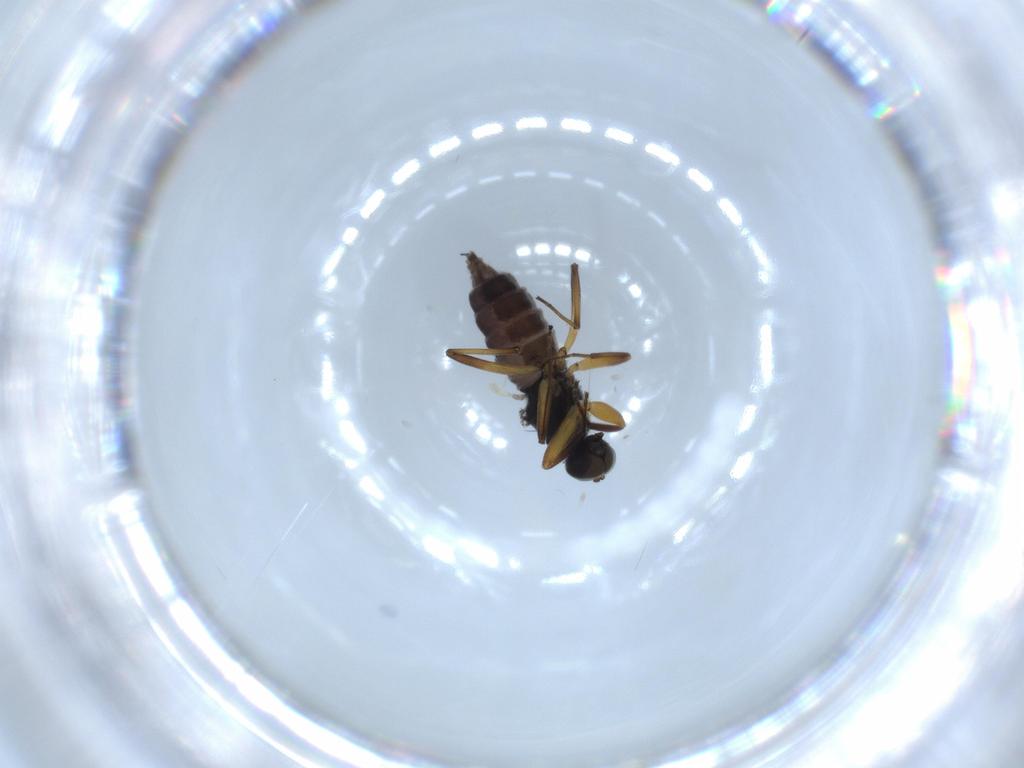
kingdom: Animalia
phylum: Arthropoda
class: Insecta
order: Diptera
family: Hybotidae
